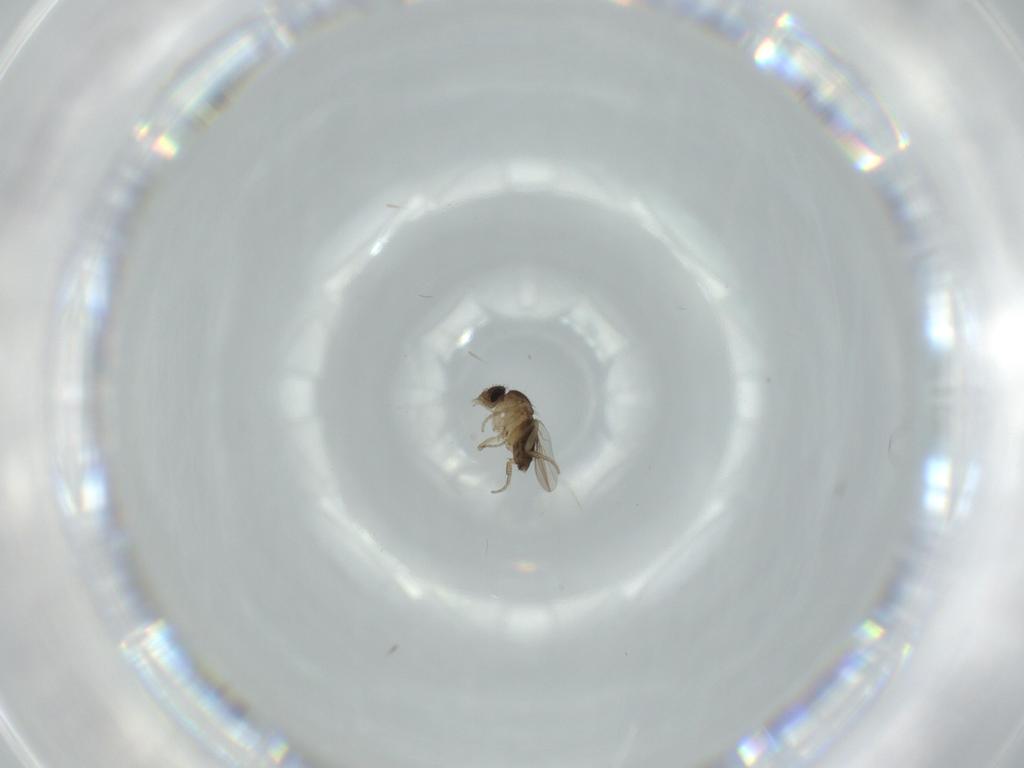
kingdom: Animalia
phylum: Arthropoda
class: Insecta
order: Diptera
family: Phoridae
